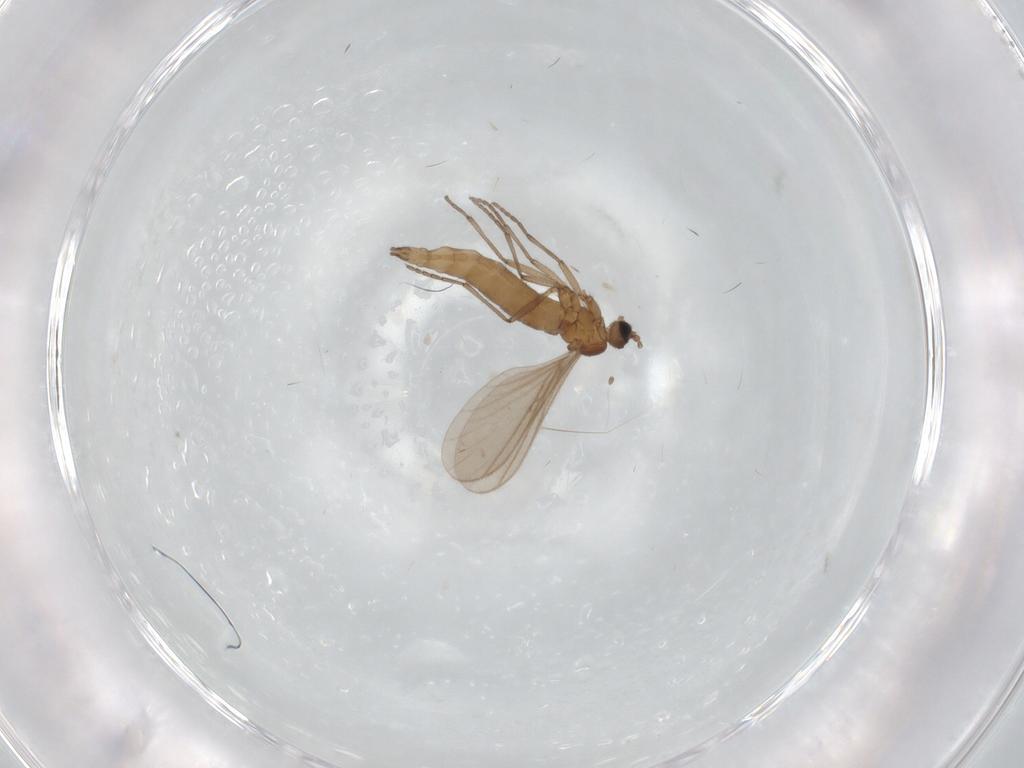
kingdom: Animalia
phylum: Arthropoda
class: Insecta
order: Diptera
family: Sciaridae
